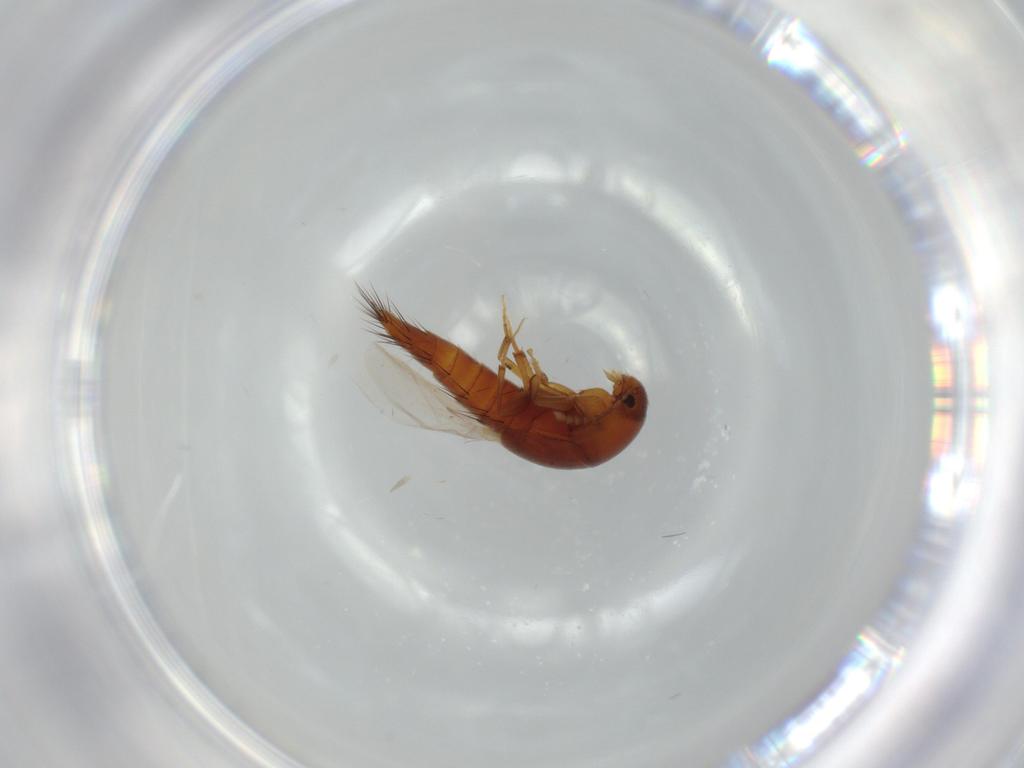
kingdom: Animalia
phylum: Arthropoda
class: Insecta
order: Coleoptera
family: Staphylinidae
